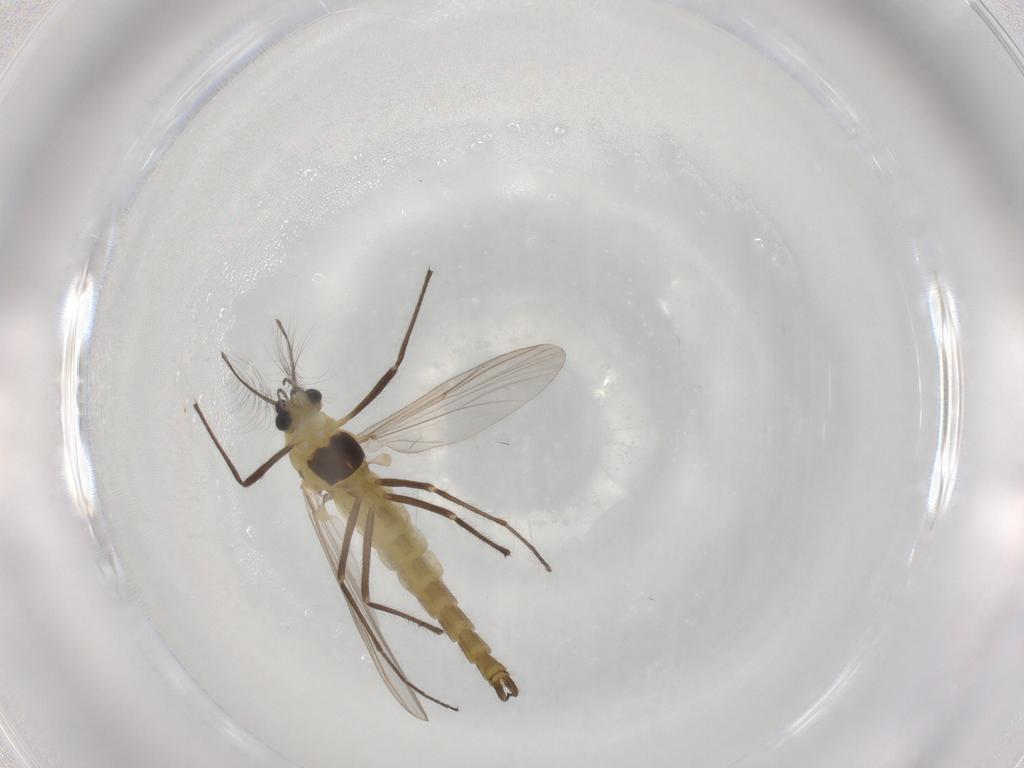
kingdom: Animalia
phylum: Arthropoda
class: Insecta
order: Diptera
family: Chironomidae
